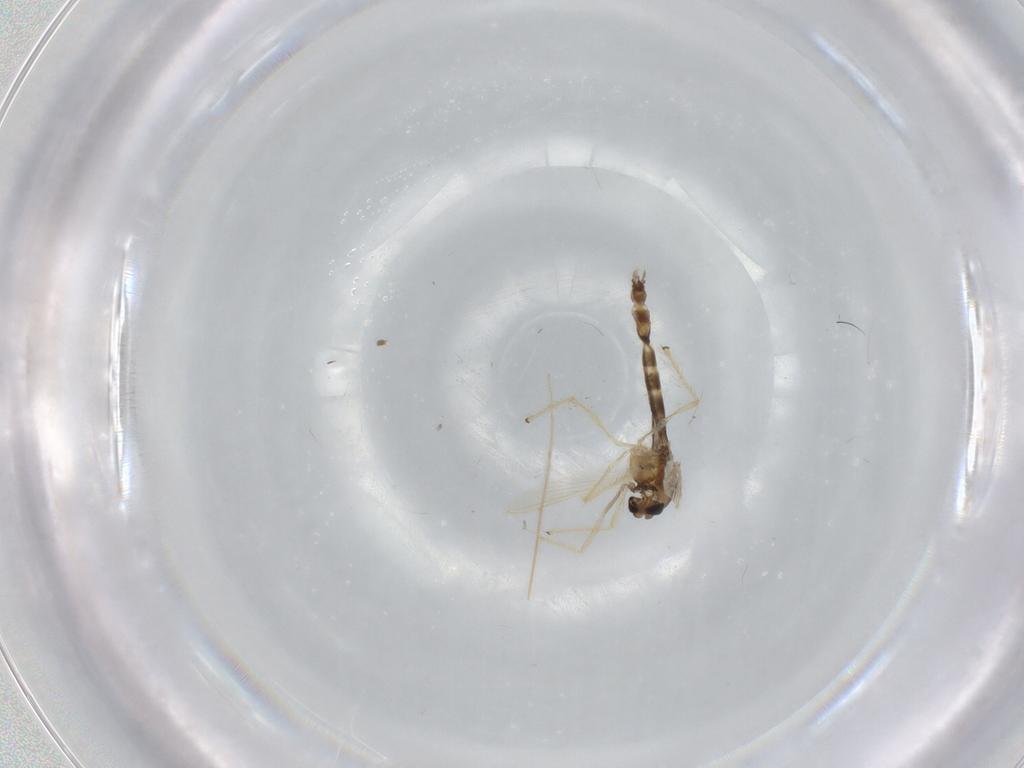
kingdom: Animalia
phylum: Arthropoda
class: Insecta
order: Diptera
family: Chironomidae
